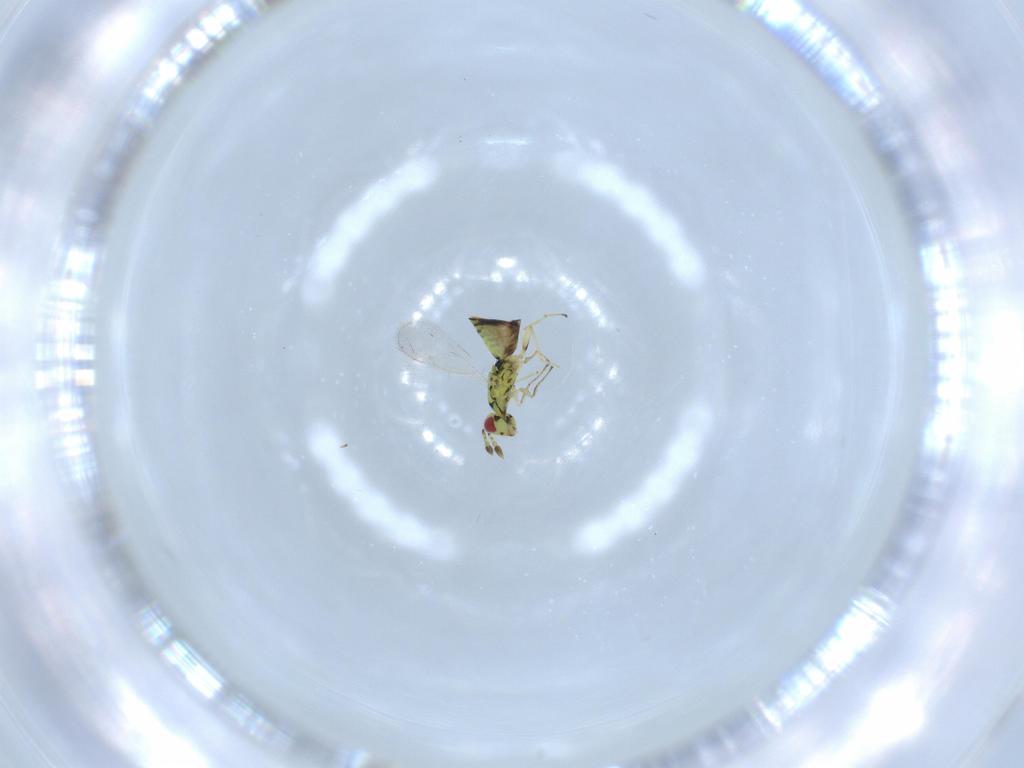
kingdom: Animalia
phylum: Arthropoda
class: Insecta
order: Hymenoptera
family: Eulophidae
